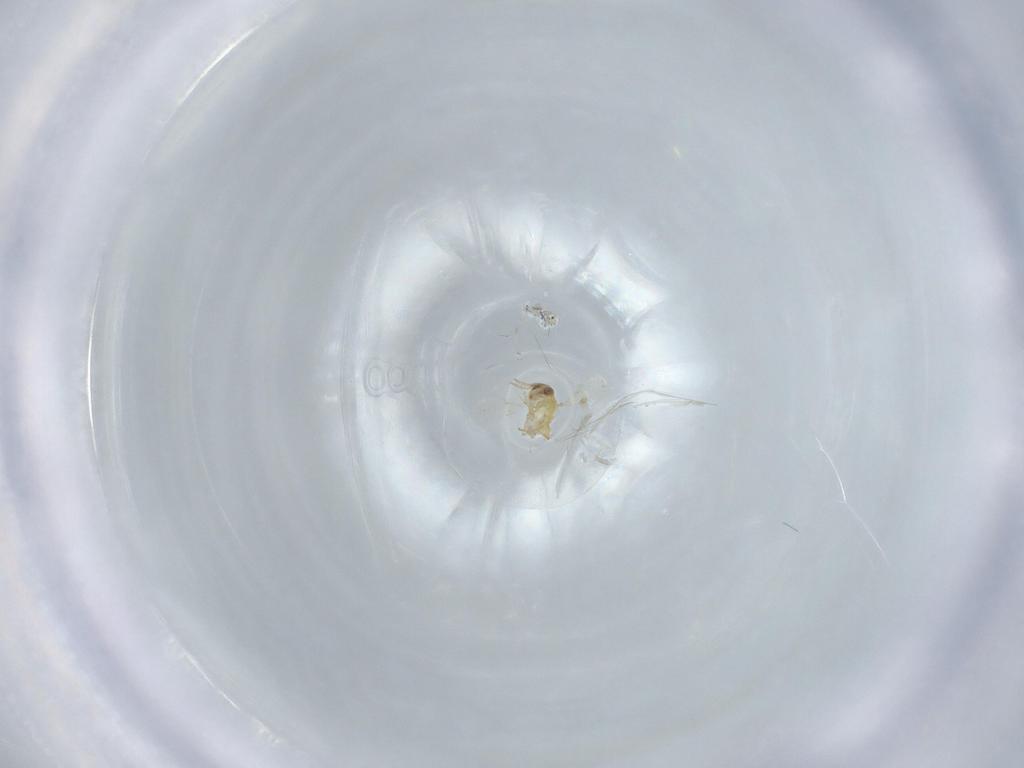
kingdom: Animalia
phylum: Arthropoda
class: Insecta
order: Hymenoptera
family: Aphelinidae
